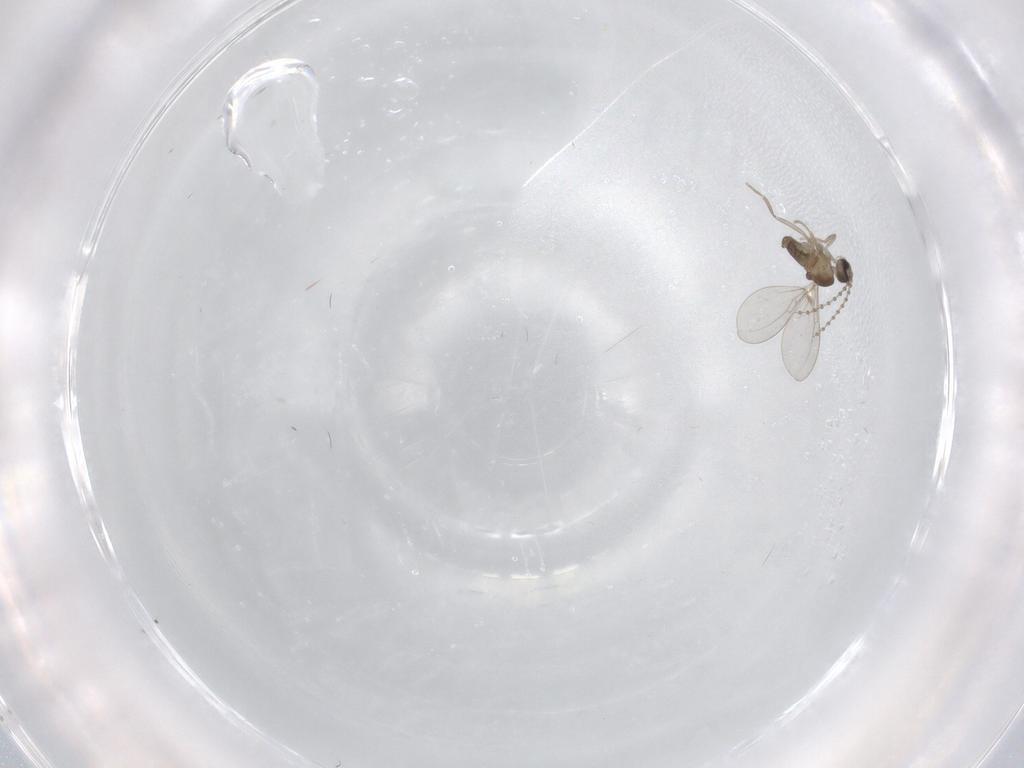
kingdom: Animalia
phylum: Arthropoda
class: Insecta
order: Diptera
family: Cecidomyiidae
